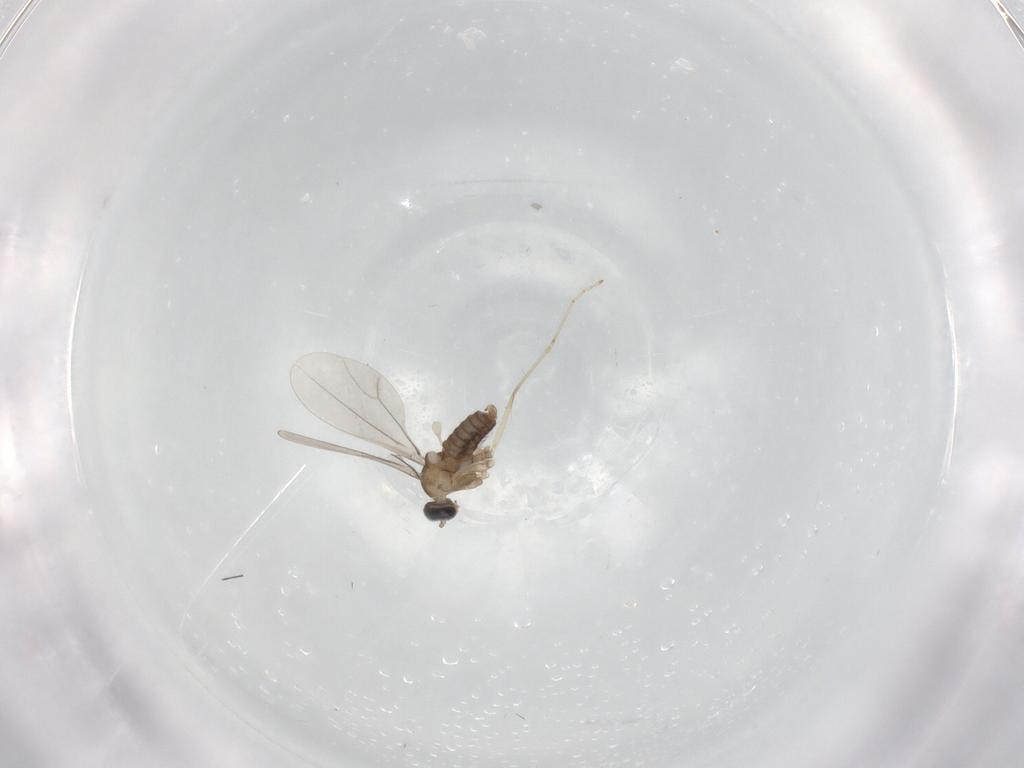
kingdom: Animalia
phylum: Arthropoda
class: Insecta
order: Diptera
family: Cecidomyiidae
